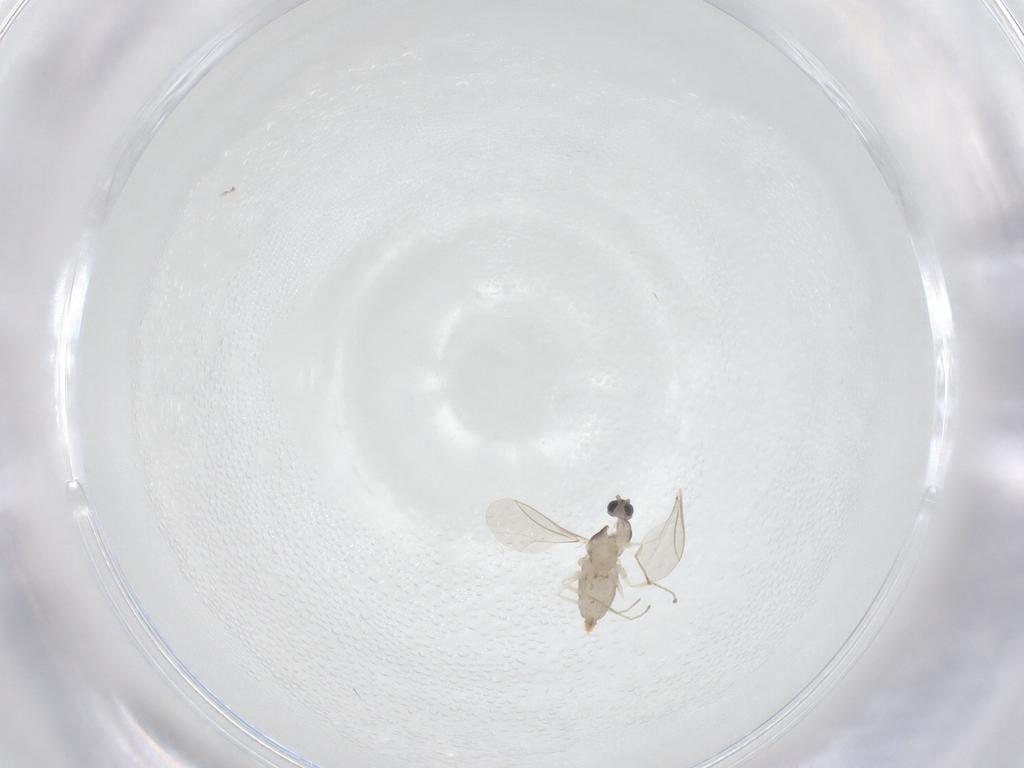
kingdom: Animalia
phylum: Arthropoda
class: Insecta
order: Diptera
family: Cecidomyiidae
